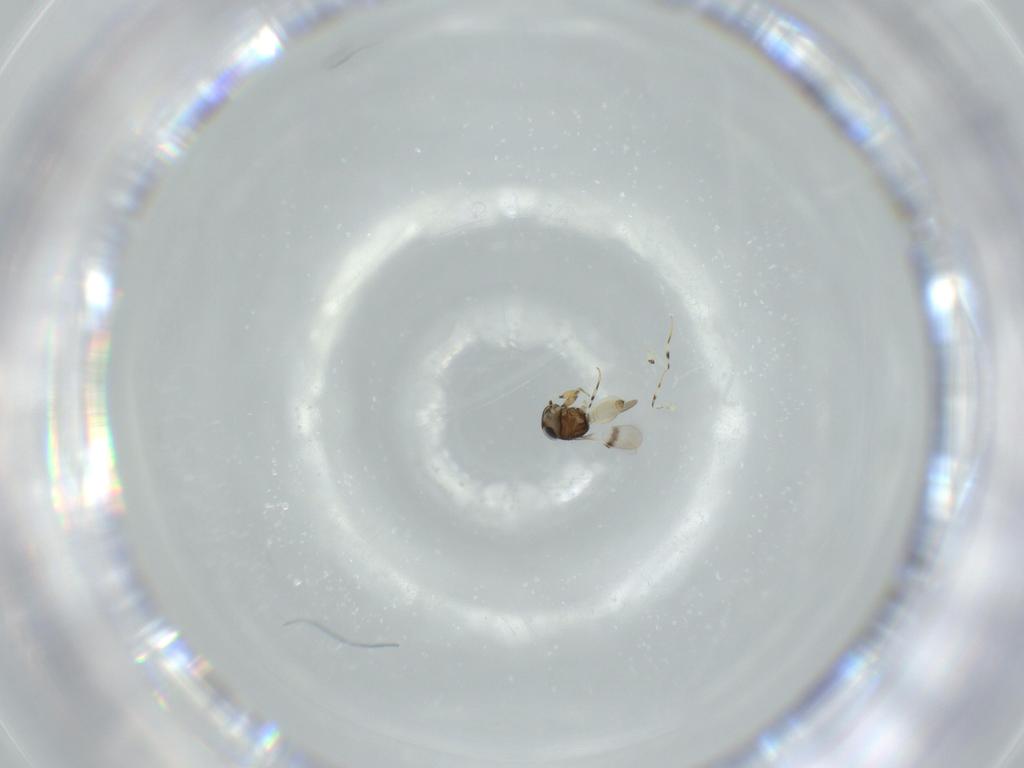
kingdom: Animalia
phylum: Arthropoda
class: Insecta
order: Hymenoptera
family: Scelionidae
